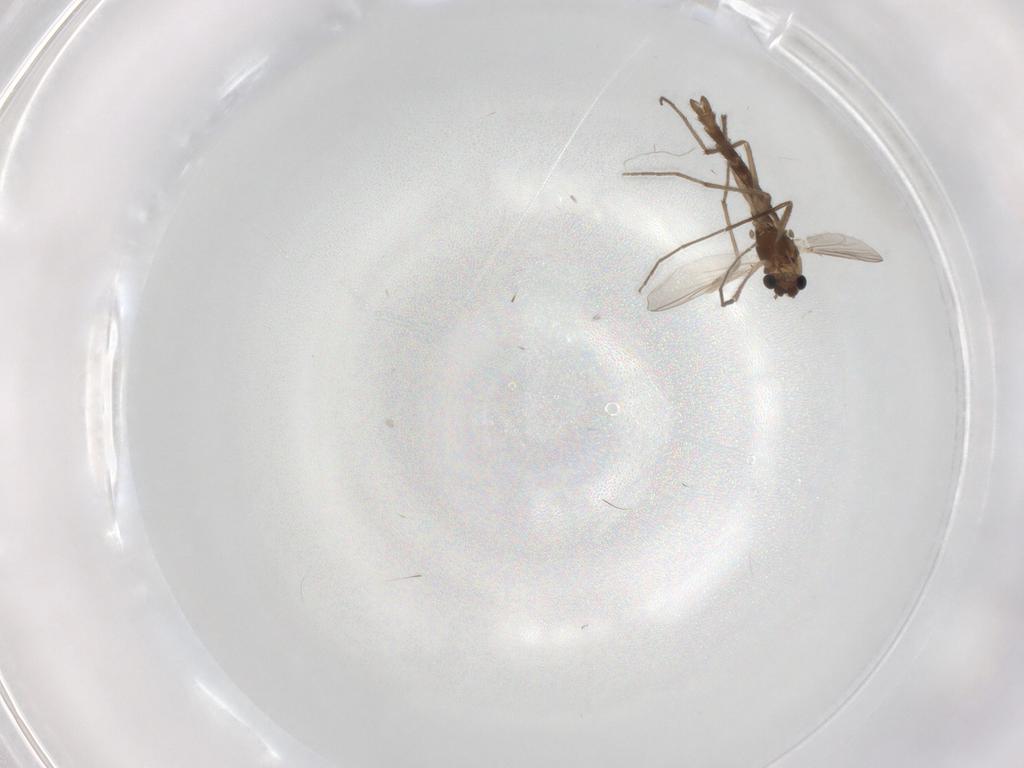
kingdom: Animalia
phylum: Arthropoda
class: Insecta
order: Diptera
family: Chironomidae
